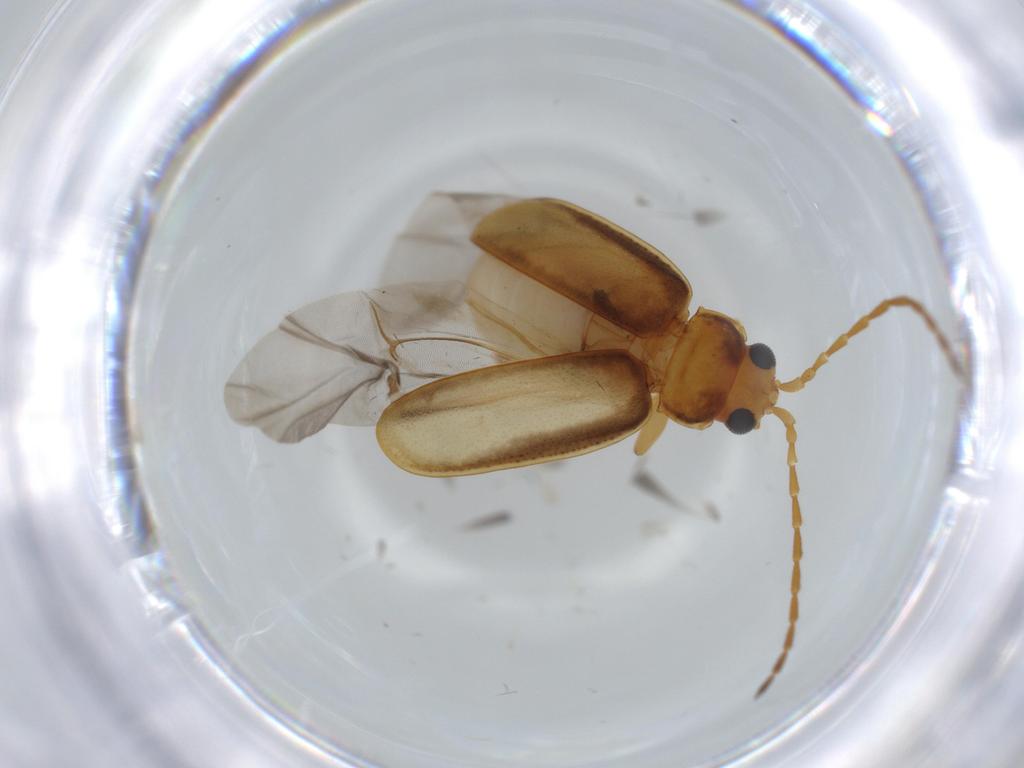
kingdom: Animalia
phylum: Arthropoda
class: Insecta
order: Coleoptera
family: Chrysomelidae
